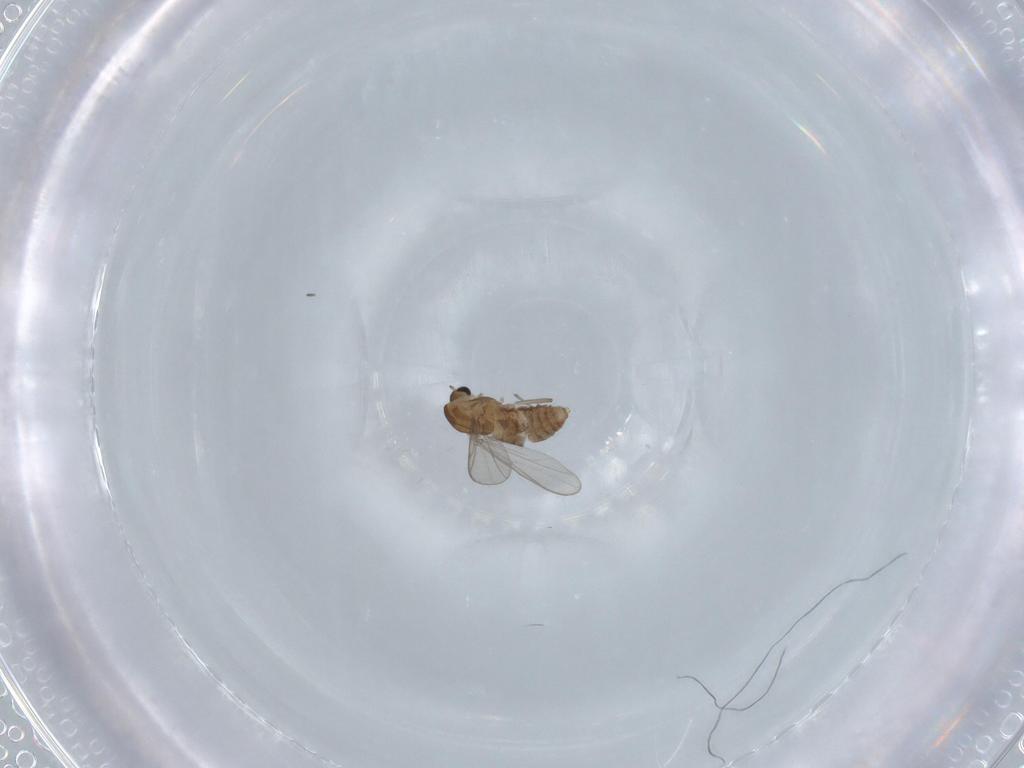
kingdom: Animalia
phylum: Arthropoda
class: Insecta
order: Diptera
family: Chironomidae
